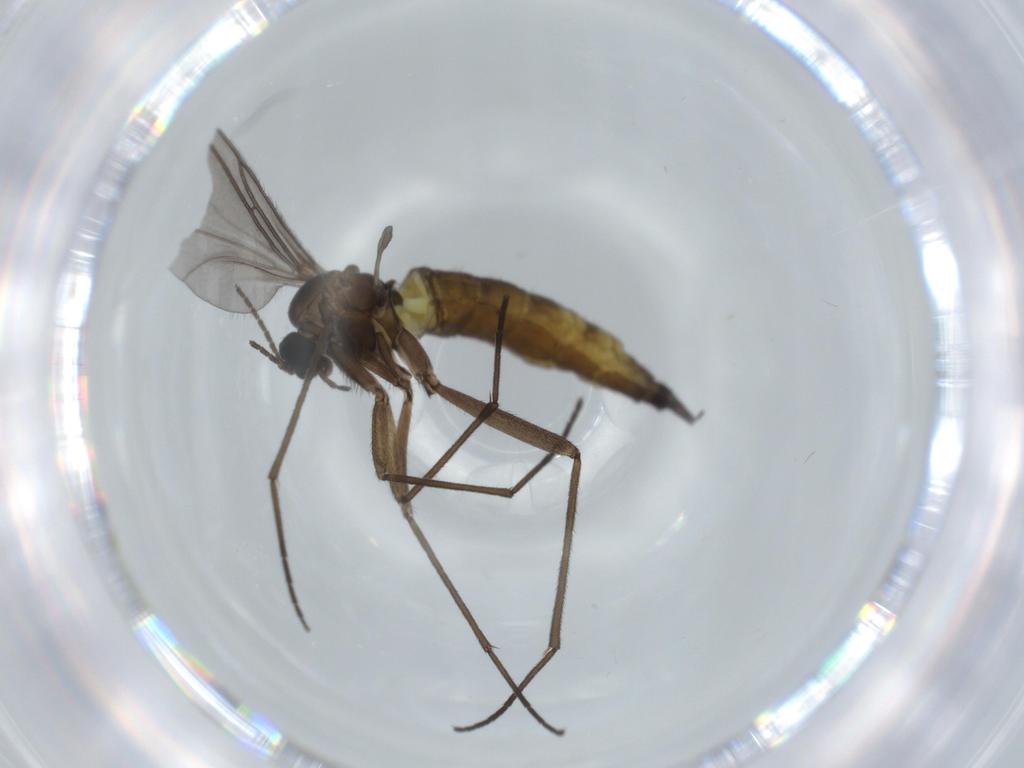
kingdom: Animalia
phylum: Arthropoda
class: Insecta
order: Diptera
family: Sciaridae
